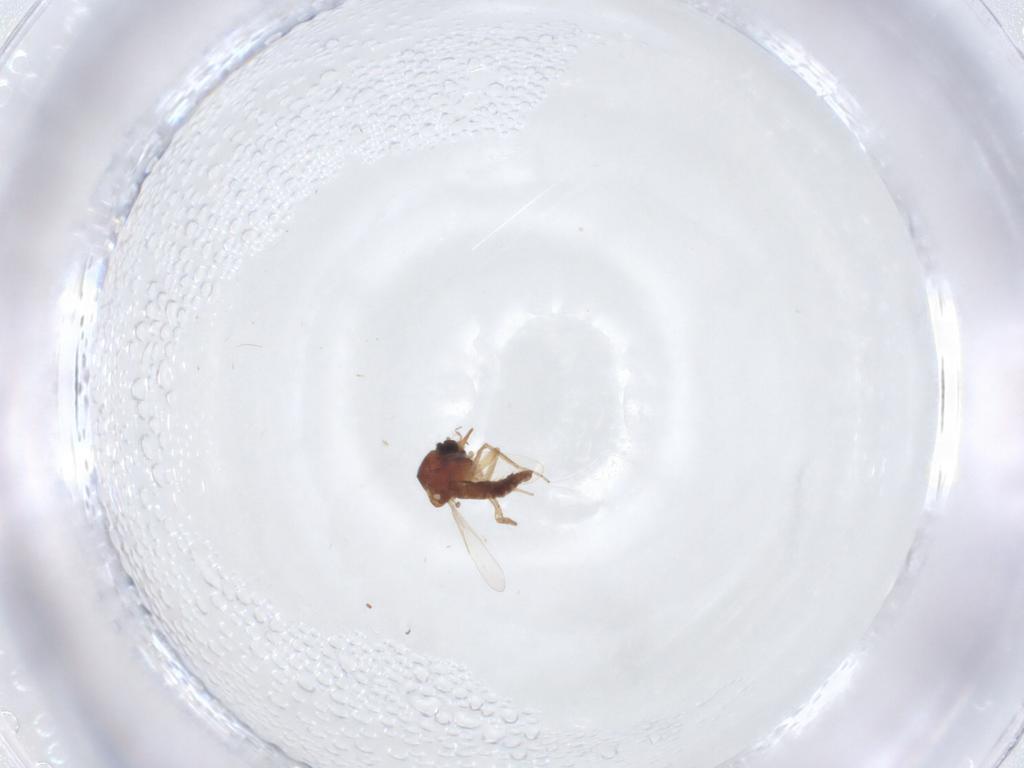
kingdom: Animalia
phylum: Arthropoda
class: Insecta
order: Diptera
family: Ceratopogonidae
